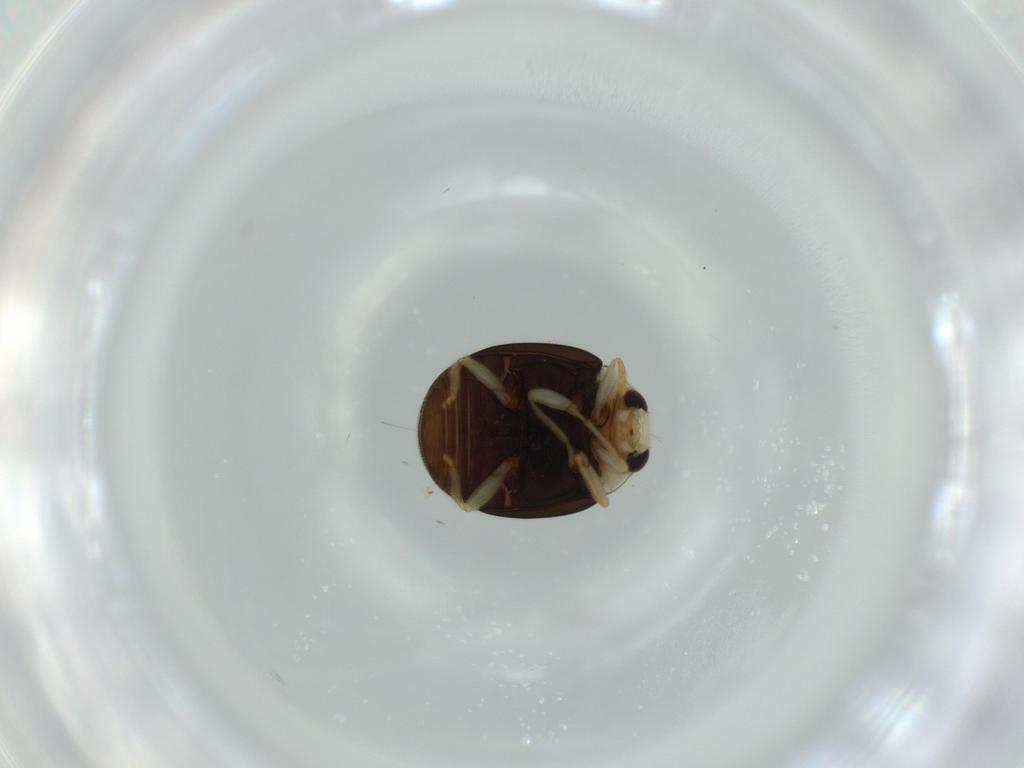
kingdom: Animalia
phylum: Arthropoda
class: Insecta
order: Coleoptera
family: Coccinellidae
